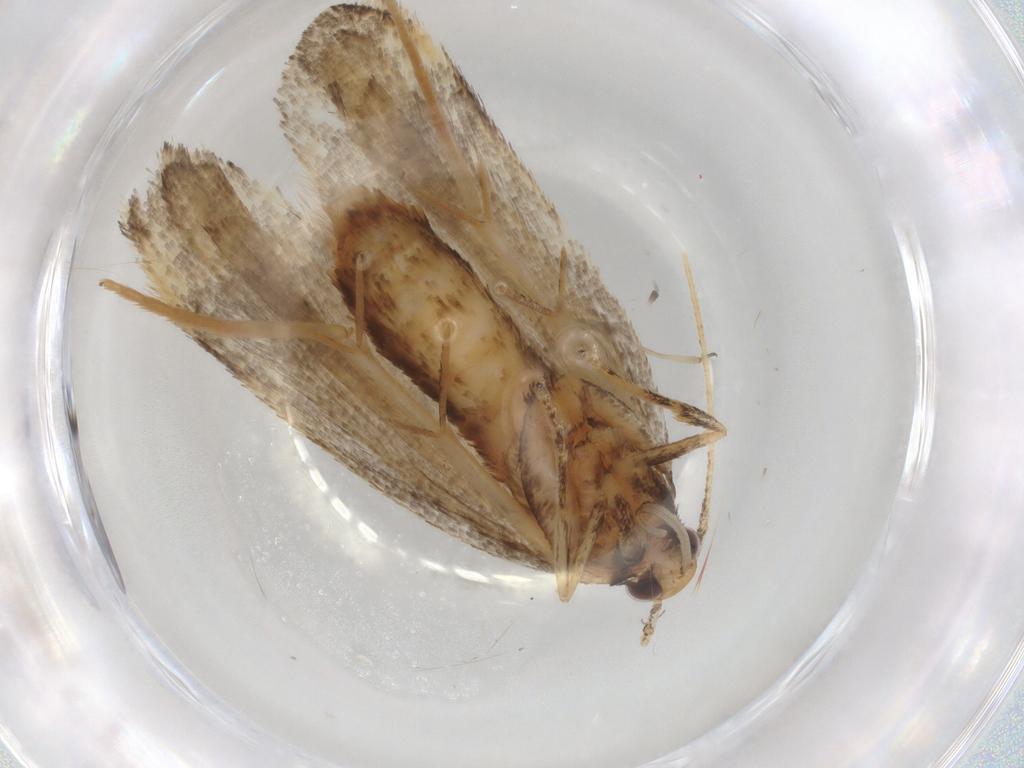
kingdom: Animalia
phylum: Arthropoda
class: Insecta
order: Lepidoptera
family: Lecithoceridae
